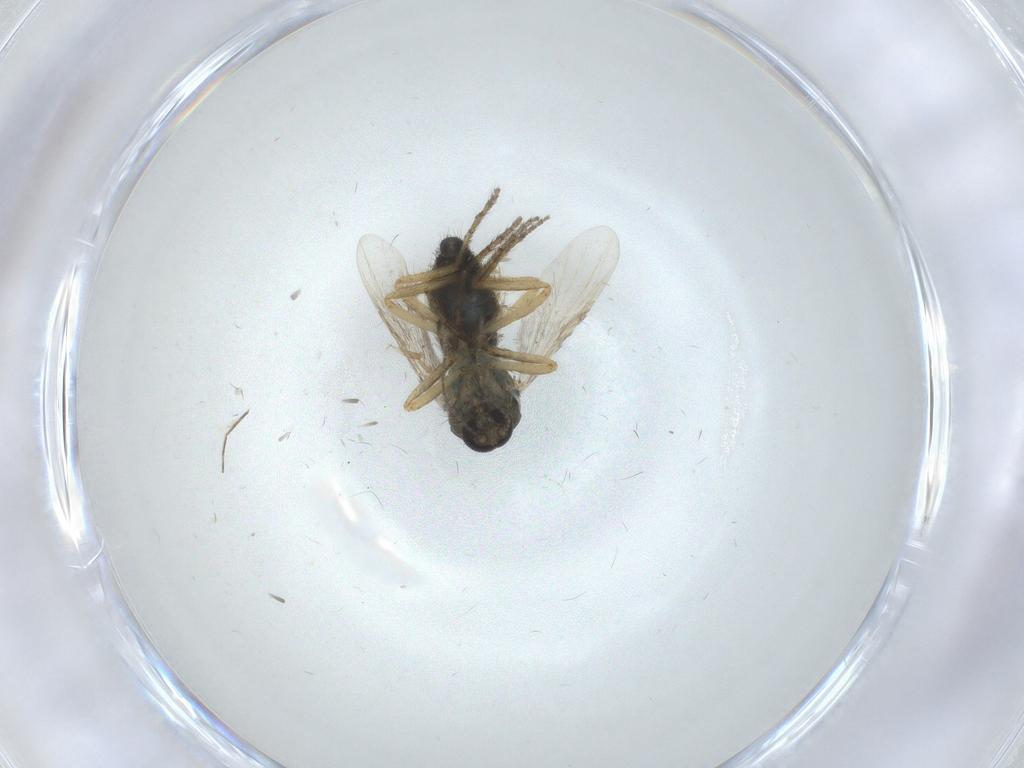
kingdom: Animalia
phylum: Arthropoda
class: Insecta
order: Diptera
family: Ceratopogonidae
